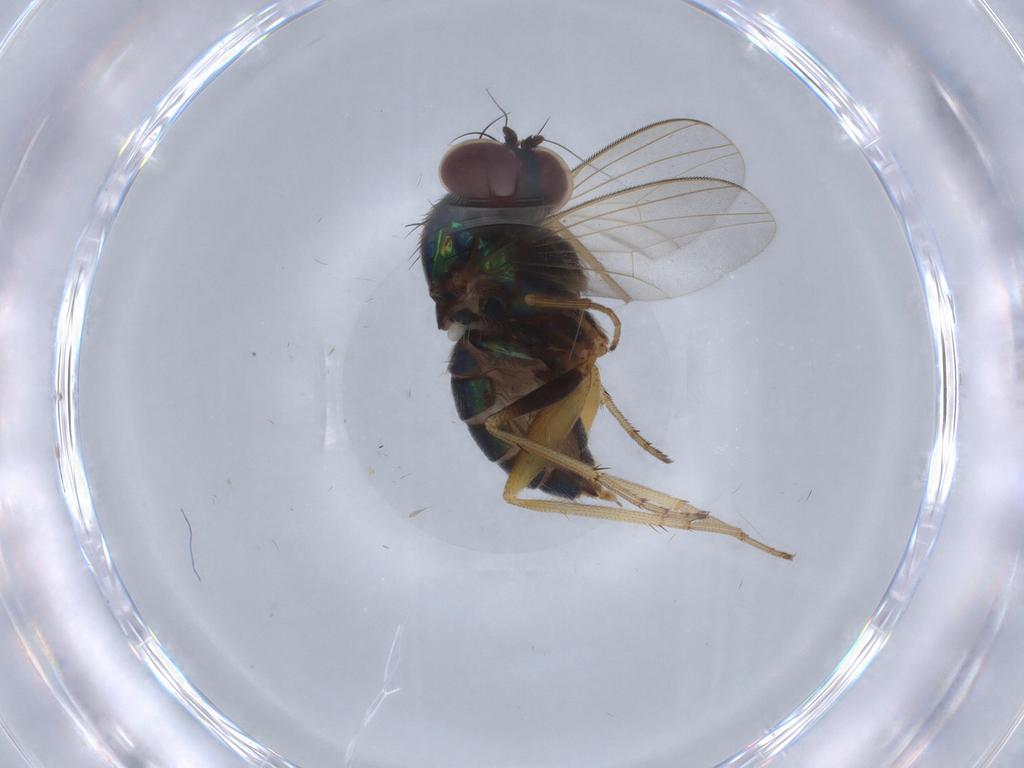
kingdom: Animalia
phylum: Arthropoda
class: Insecta
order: Diptera
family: Dolichopodidae
